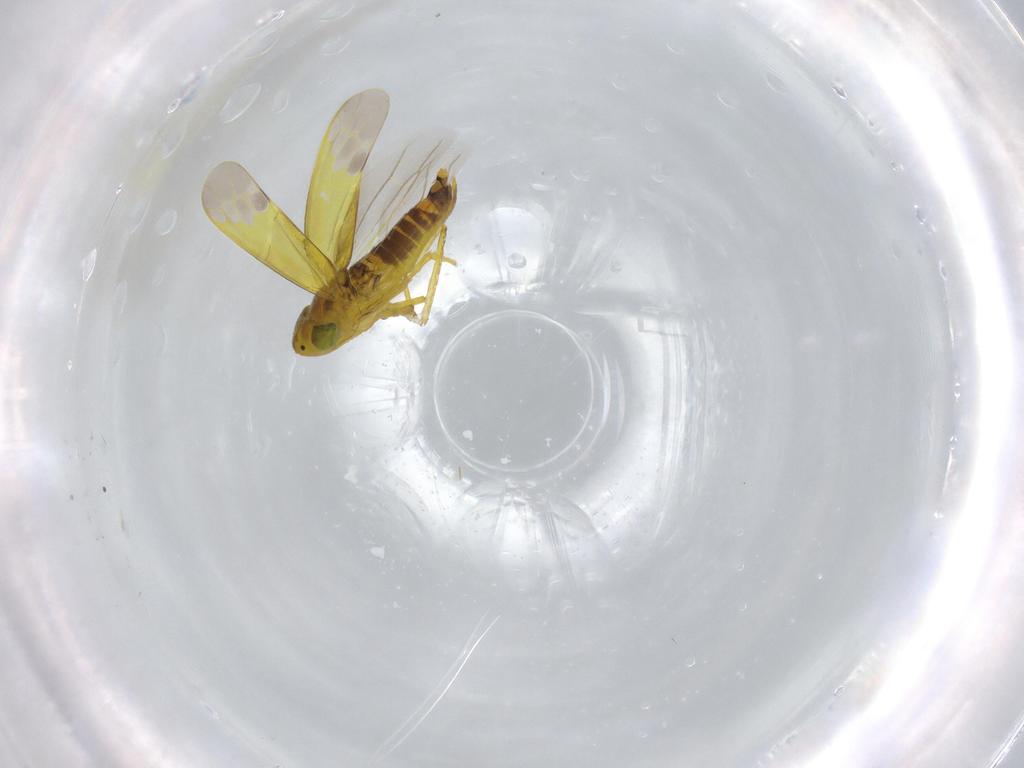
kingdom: Animalia
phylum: Arthropoda
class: Insecta
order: Hemiptera
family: Cicadellidae
